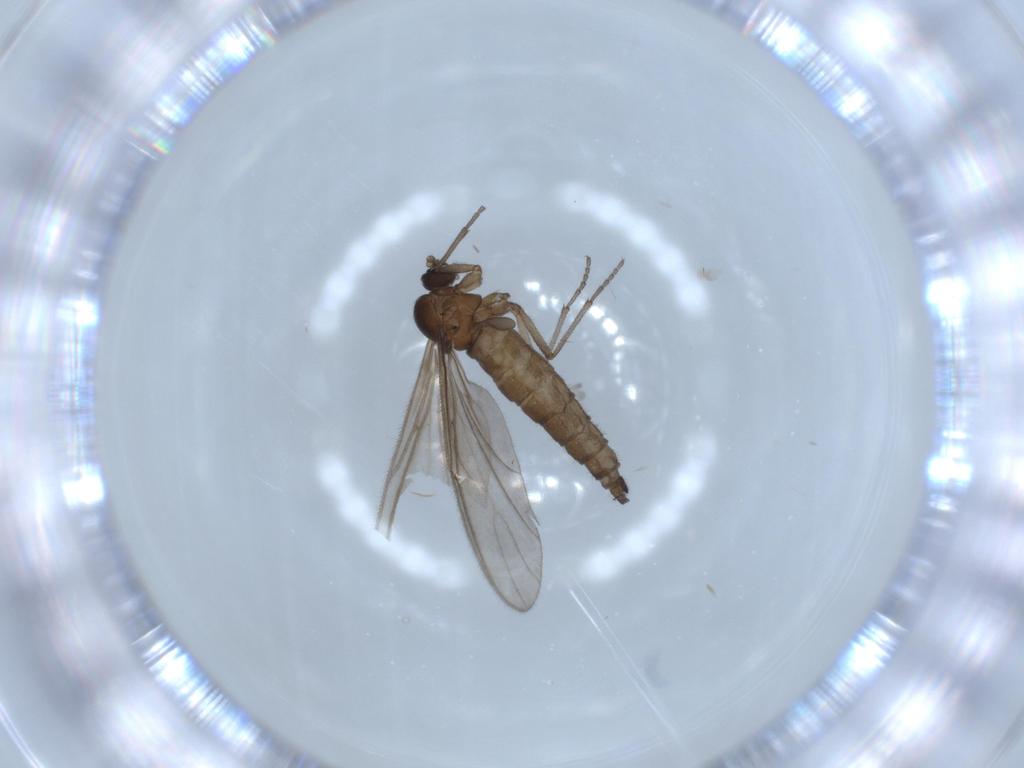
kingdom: Animalia
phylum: Arthropoda
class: Insecta
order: Diptera
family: Sciaridae
